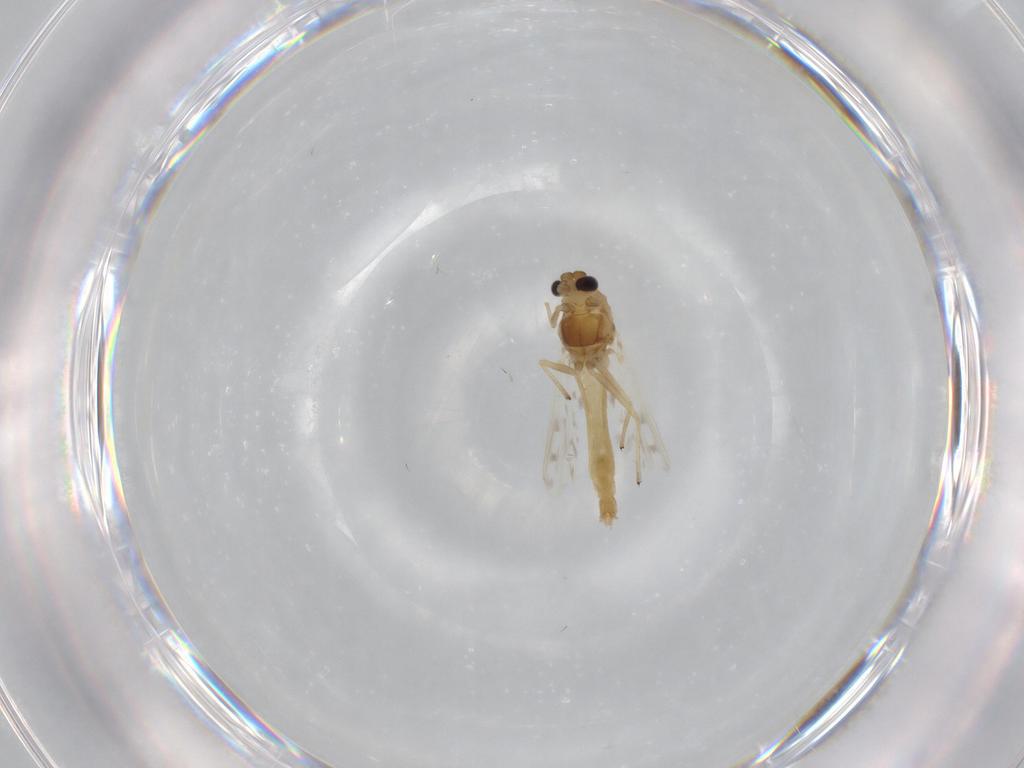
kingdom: Animalia
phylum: Arthropoda
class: Insecta
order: Diptera
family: Chironomidae
